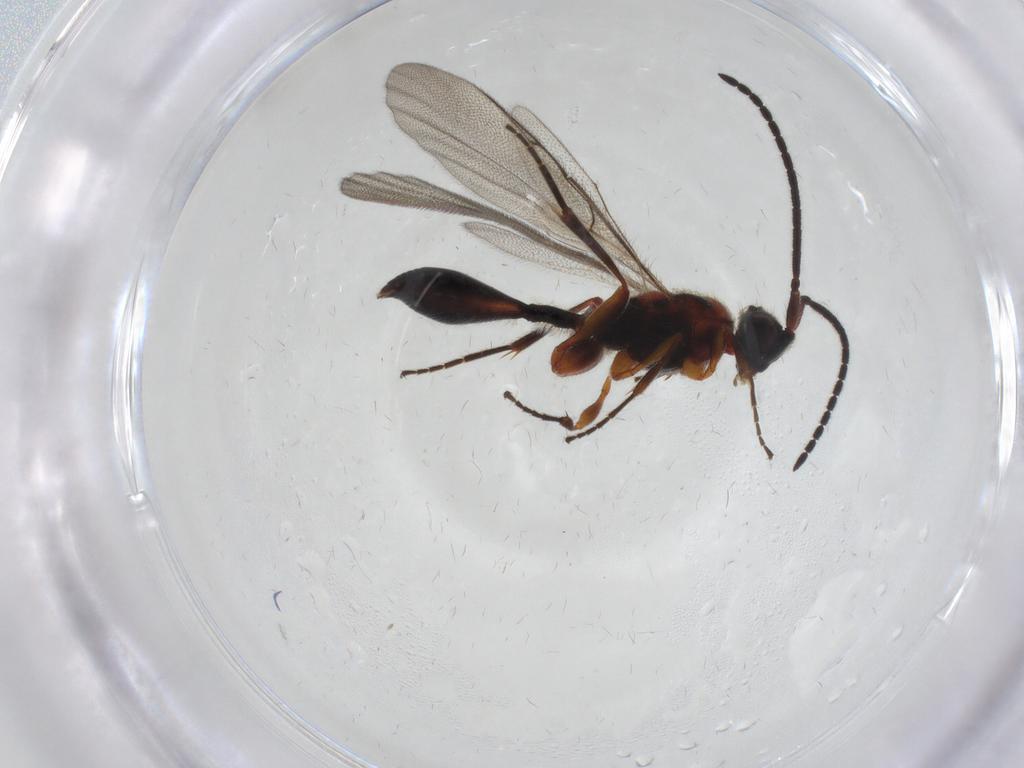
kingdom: Animalia
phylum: Arthropoda
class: Insecta
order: Hymenoptera
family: Diapriidae
